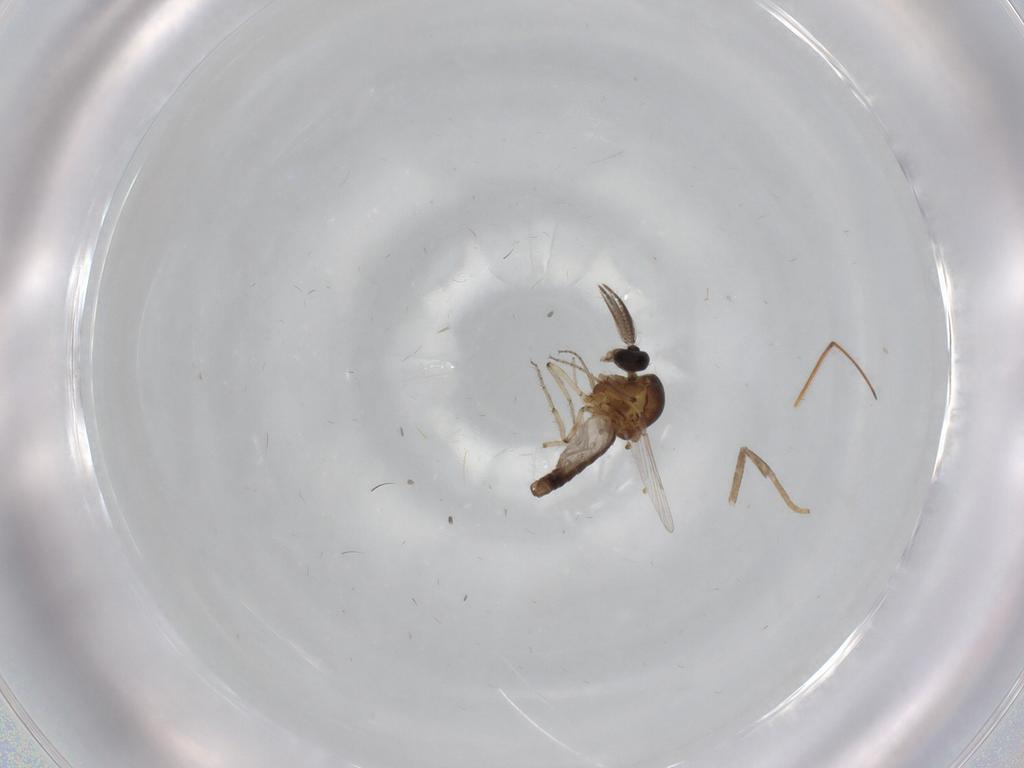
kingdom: Animalia
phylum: Arthropoda
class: Insecta
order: Diptera
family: Ceratopogonidae
